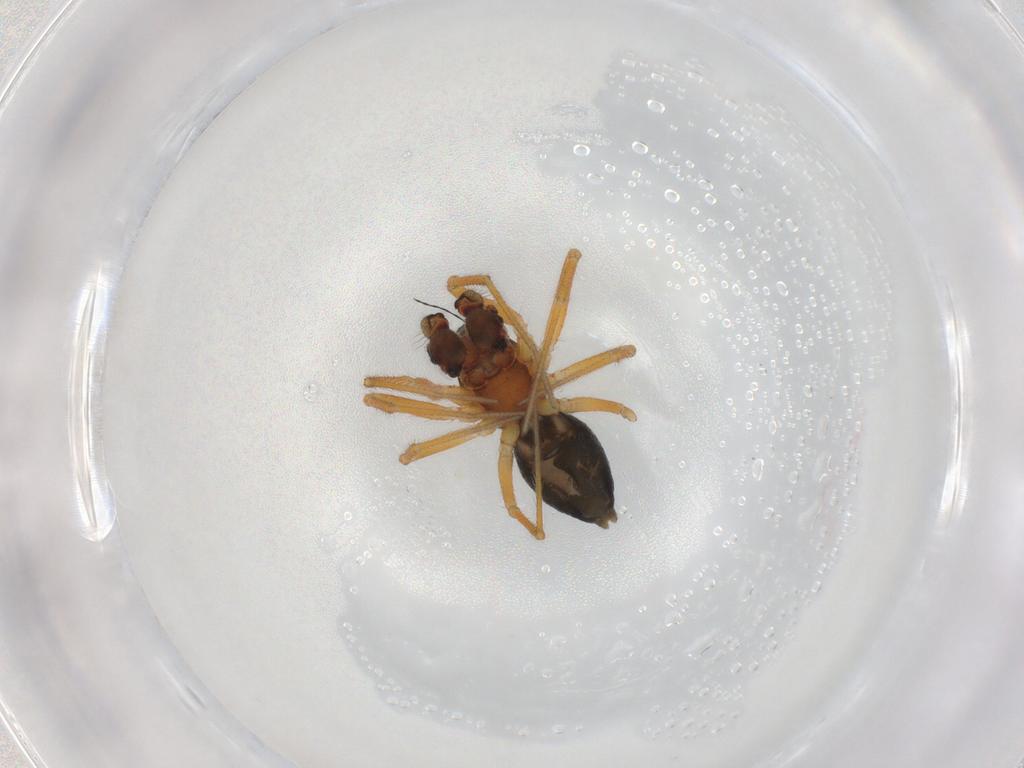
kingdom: Animalia
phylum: Arthropoda
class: Arachnida
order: Araneae
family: Linyphiidae
